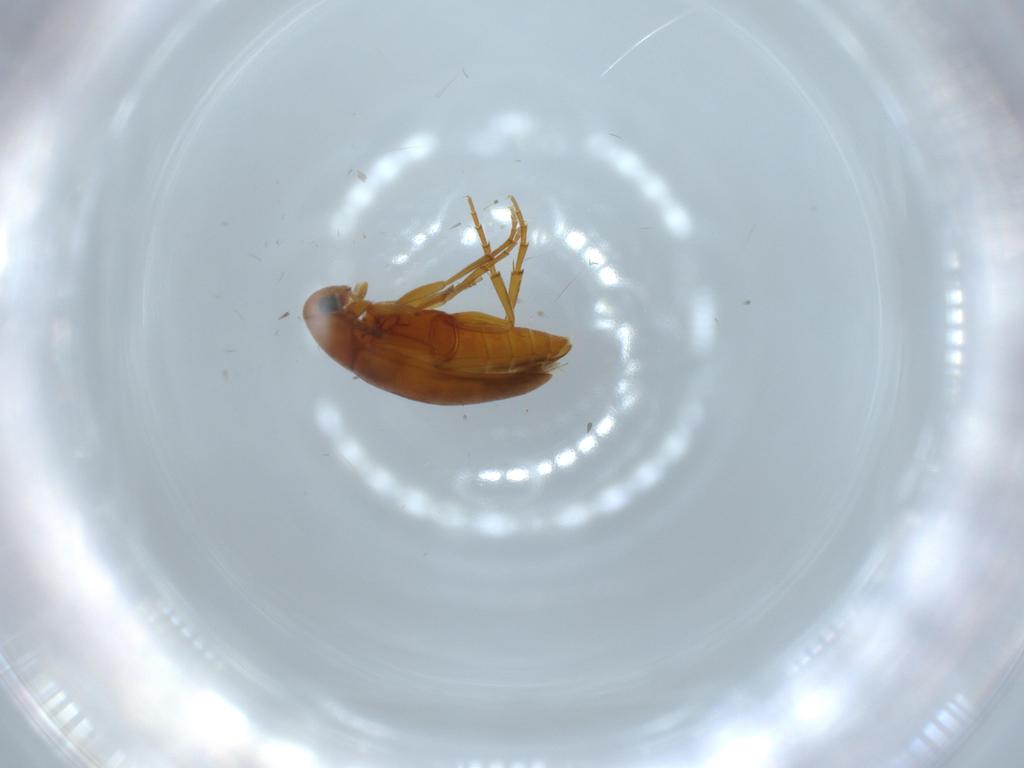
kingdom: Animalia
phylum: Arthropoda
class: Insecta
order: Coleoptera
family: Scraptiidae
